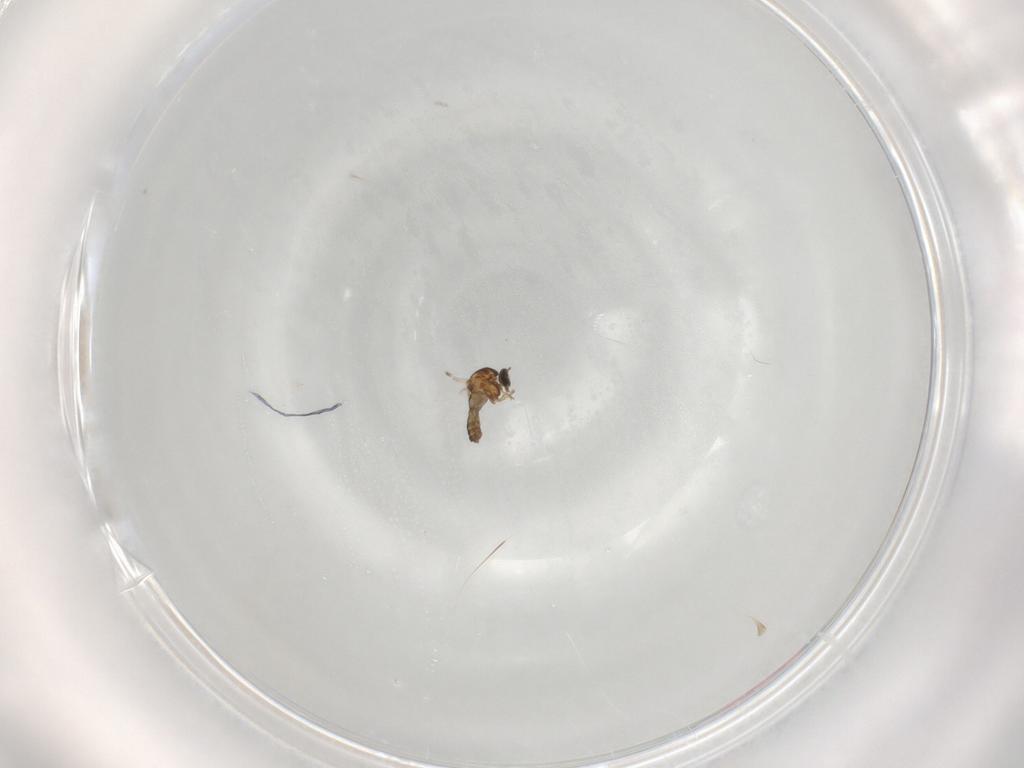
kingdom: Animalia
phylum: Arthropoda
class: Insecta
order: Diptera
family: Ceratopogonidae
